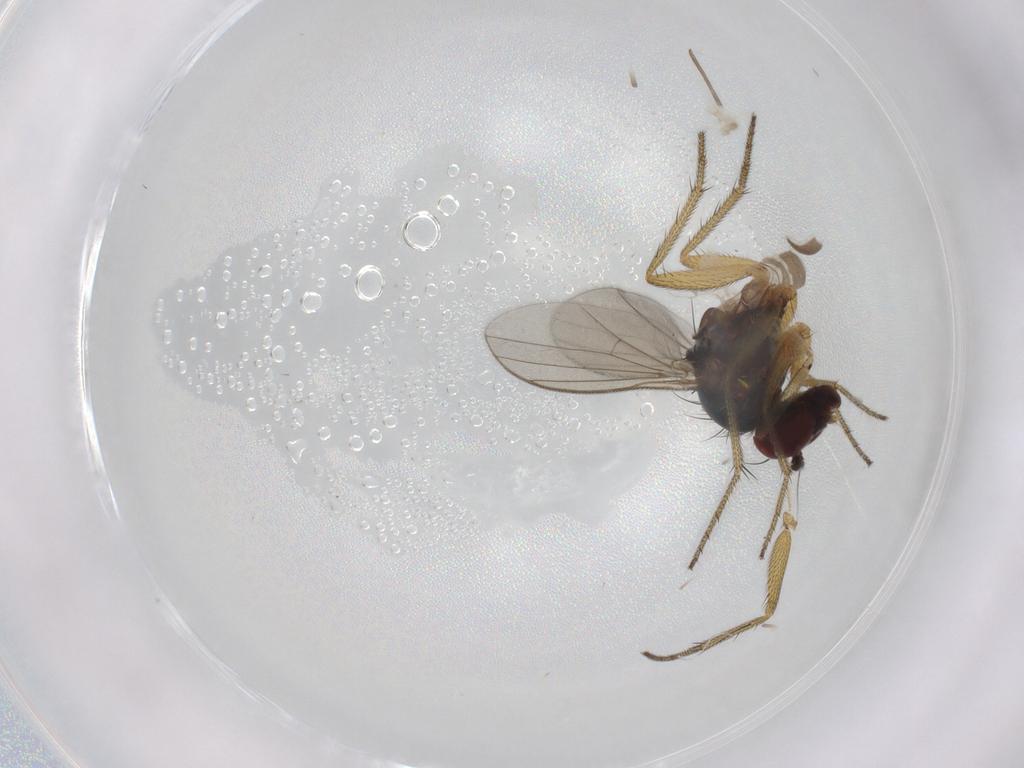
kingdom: Animalia
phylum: Arthropoda
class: Insecta
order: Diptera
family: Sciaridae
